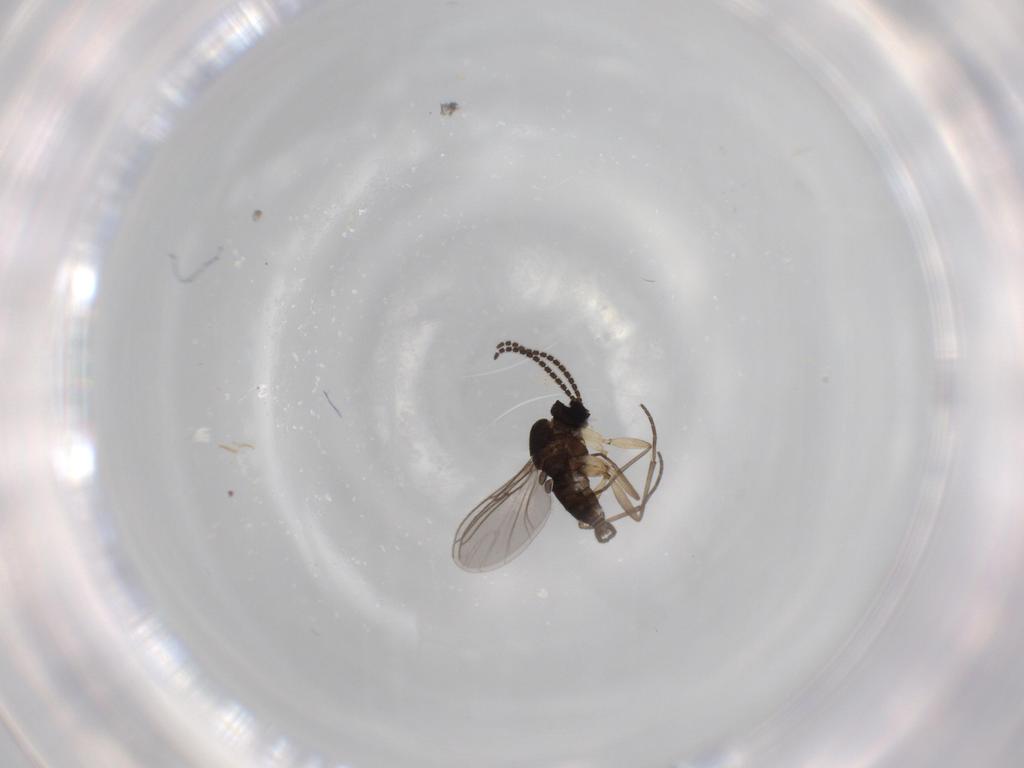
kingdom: Animalia
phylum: Arthropoda
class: Insecta
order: Diptera
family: Sciaridae
